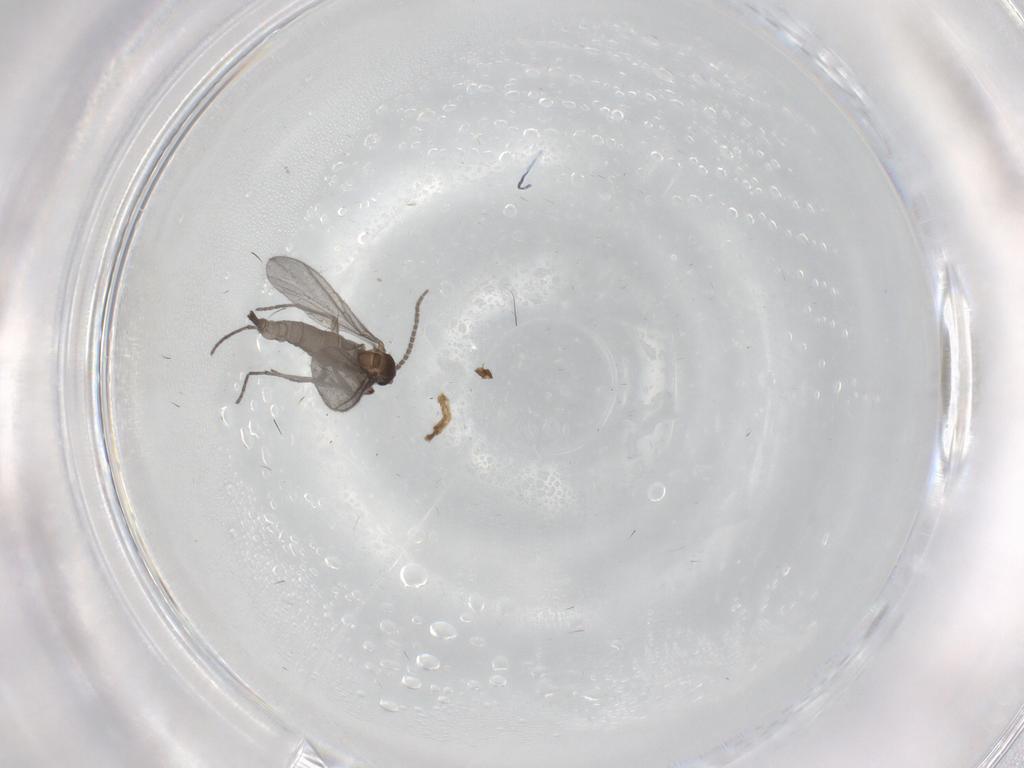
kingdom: Animalia
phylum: Arthropoda
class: Insecta
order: Diptera
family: Sciaridae
